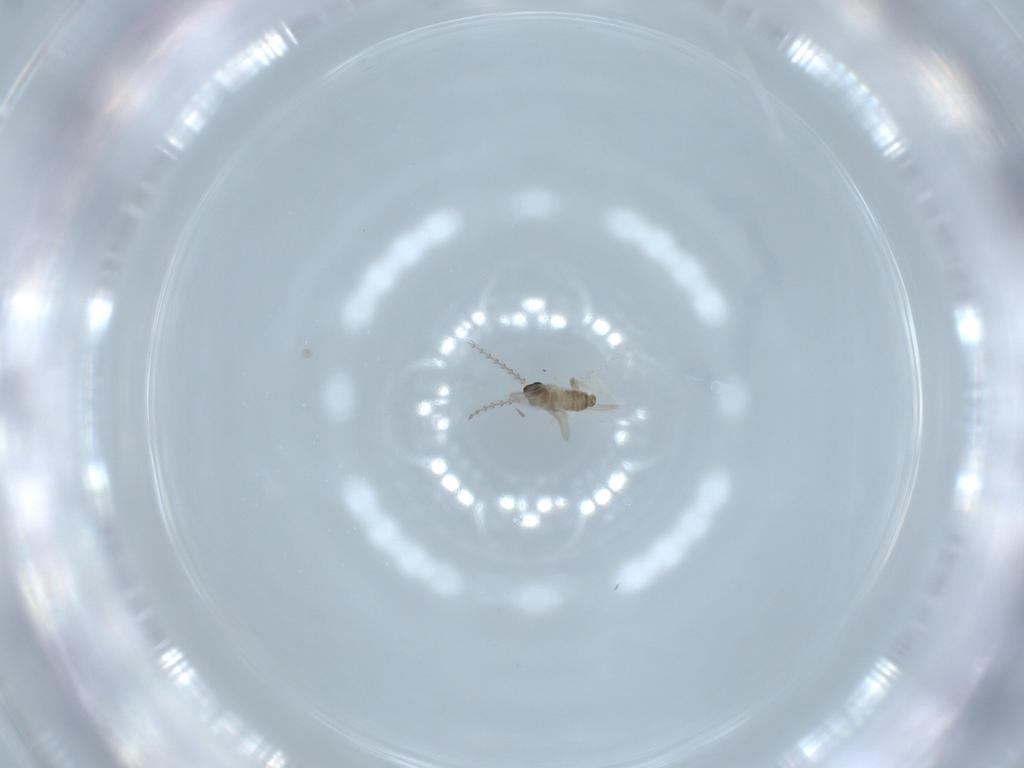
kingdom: Animalia
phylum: Arthropoda
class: Insecta
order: Diptera
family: Cecidomyiidae
